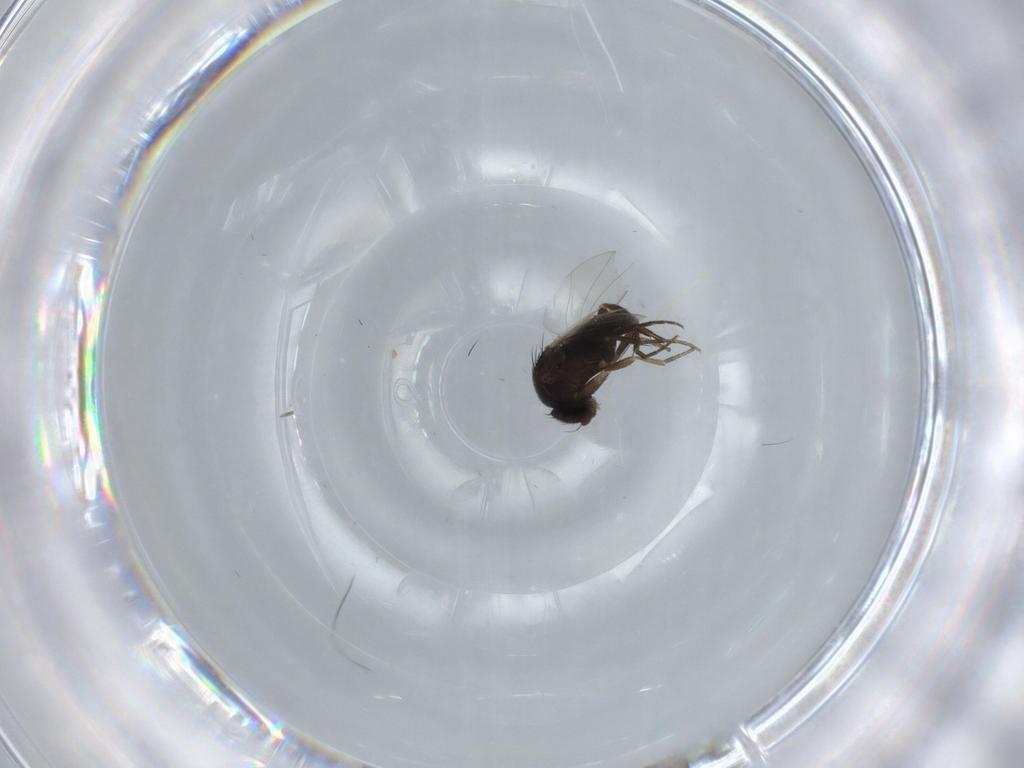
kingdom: Animalia
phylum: Arthropoda
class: Insecta
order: Diptera
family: Phoridae
